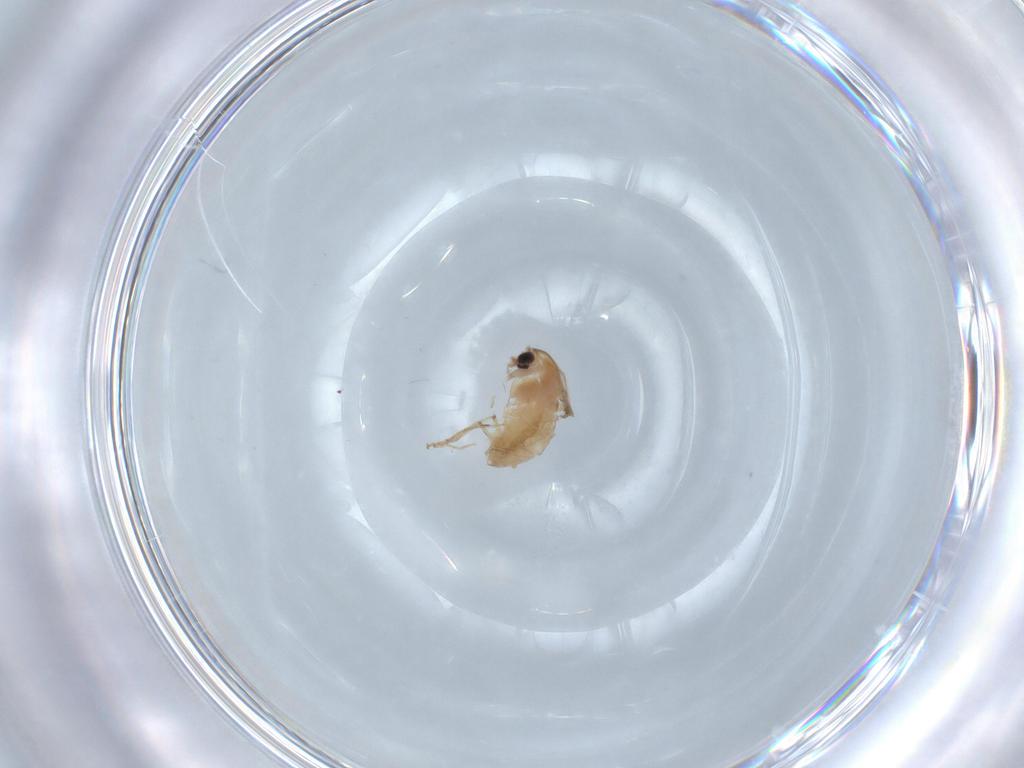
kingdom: Animalia
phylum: Arthropoda
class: Insecta
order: Diptera
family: Chironomidae
